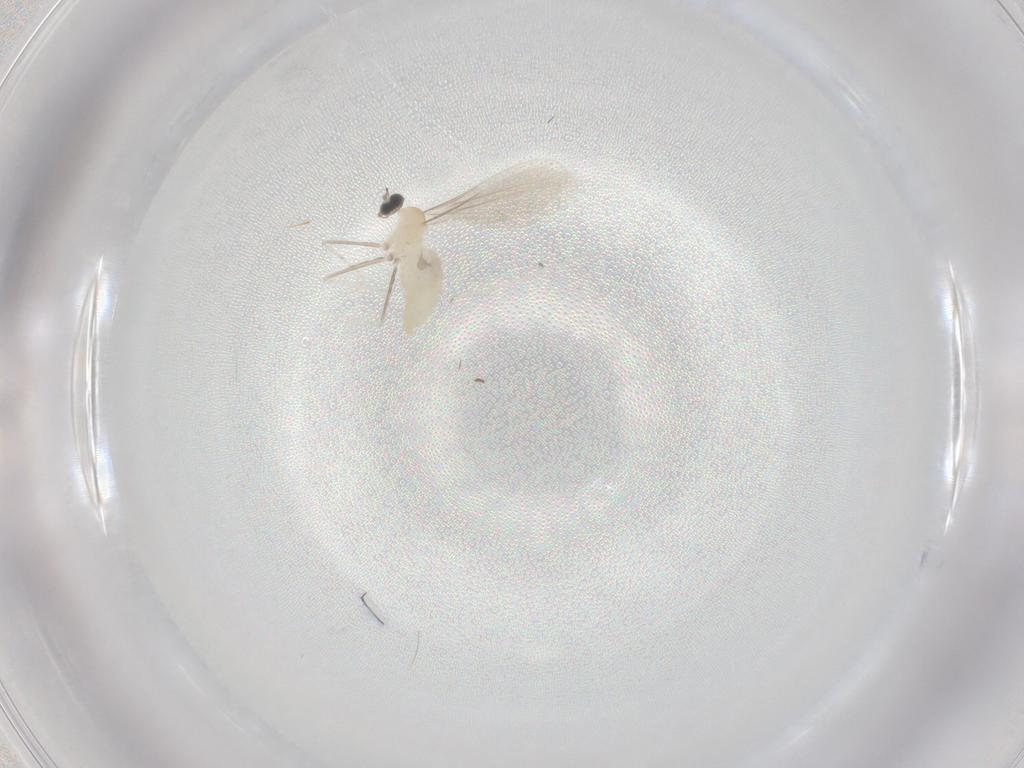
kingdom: Animalia
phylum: Arthropoda
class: Insecta
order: Diptera
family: Cecidomyiidae
